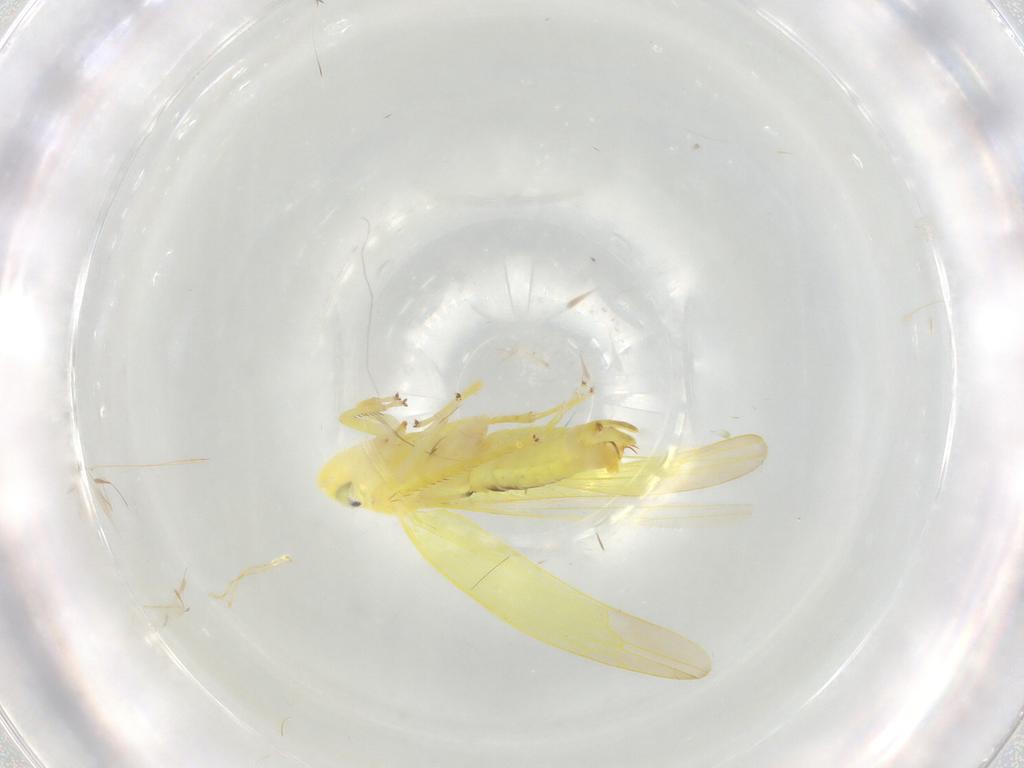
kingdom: Animalia
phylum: Arthropoda
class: Insecta
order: Hemiptera
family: Cicadellidae
